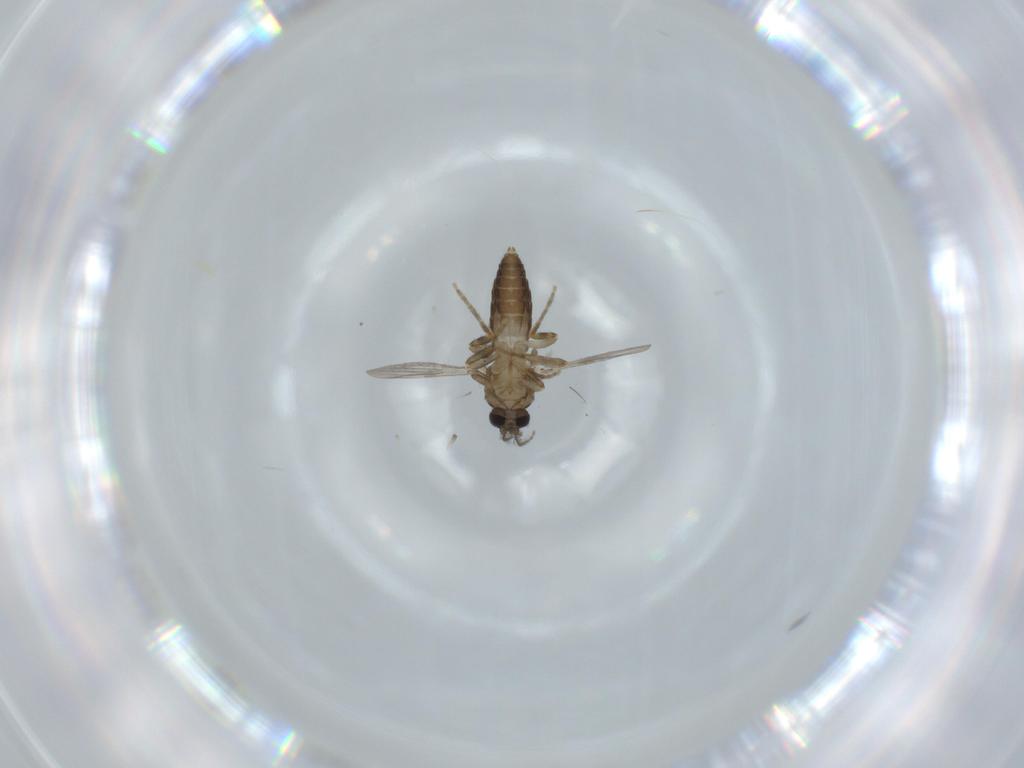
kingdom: Animalia
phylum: Arthropoda
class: Insecta
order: Diptera
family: Ceratopogonidae
